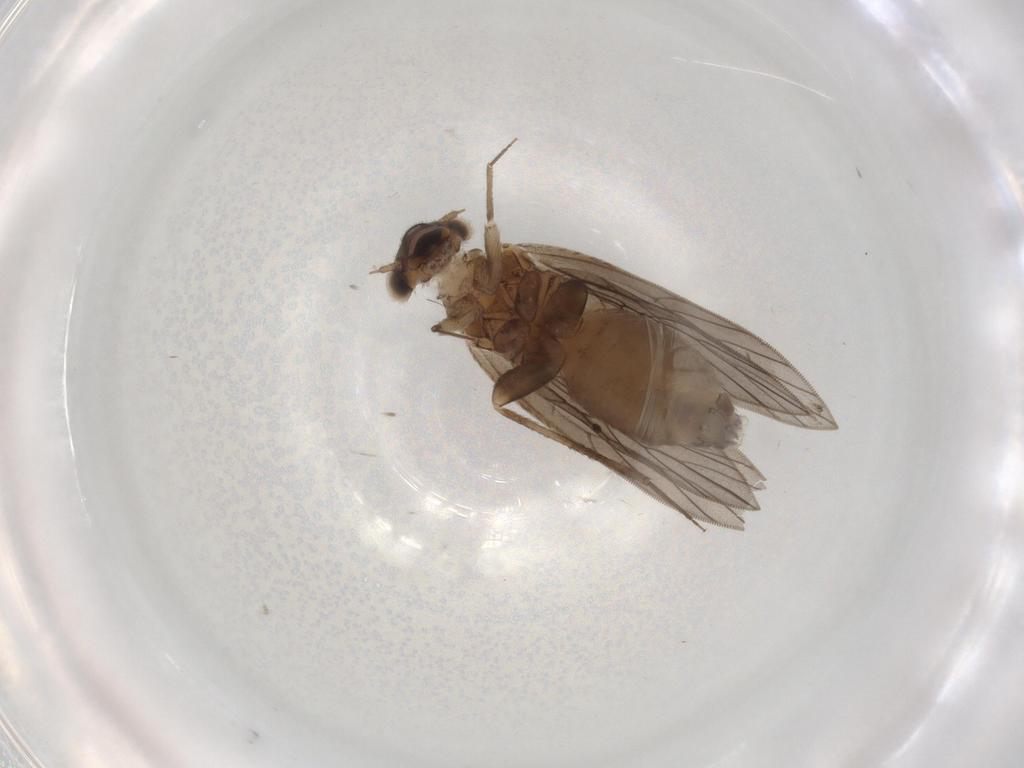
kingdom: Animalia
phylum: Arthropoda
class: Insecta
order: Psocodea
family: Lepidopsocidae
